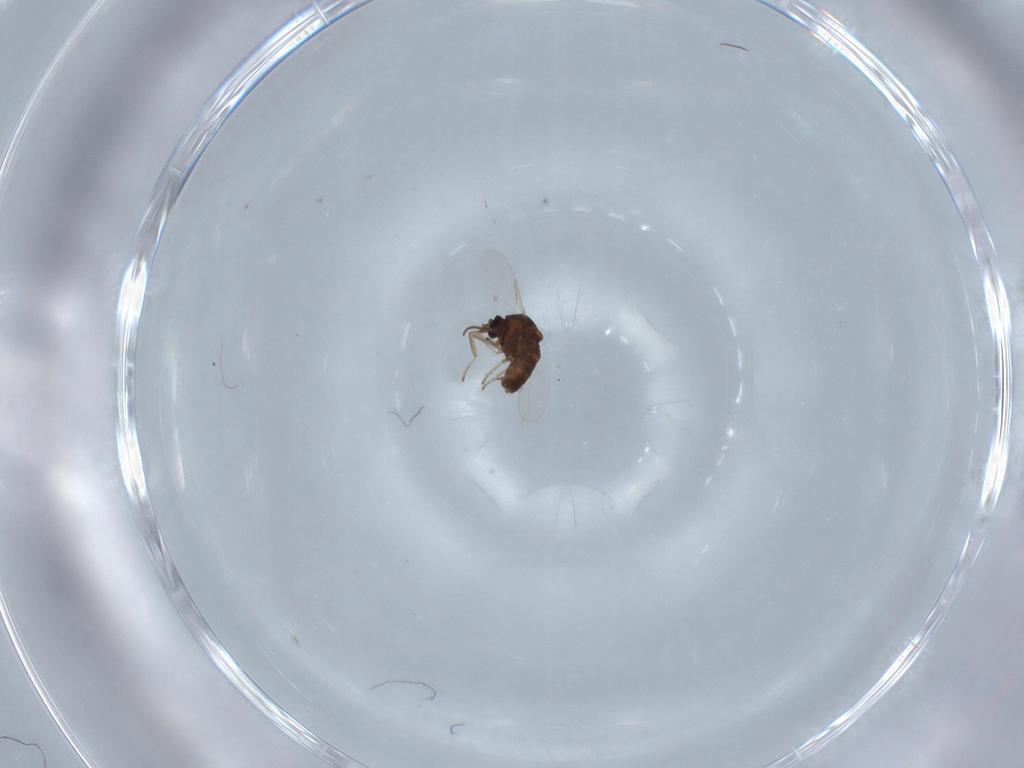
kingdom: Animalia
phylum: Arthropoda
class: Insecta
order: Diptera
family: Ceratopogonidae
